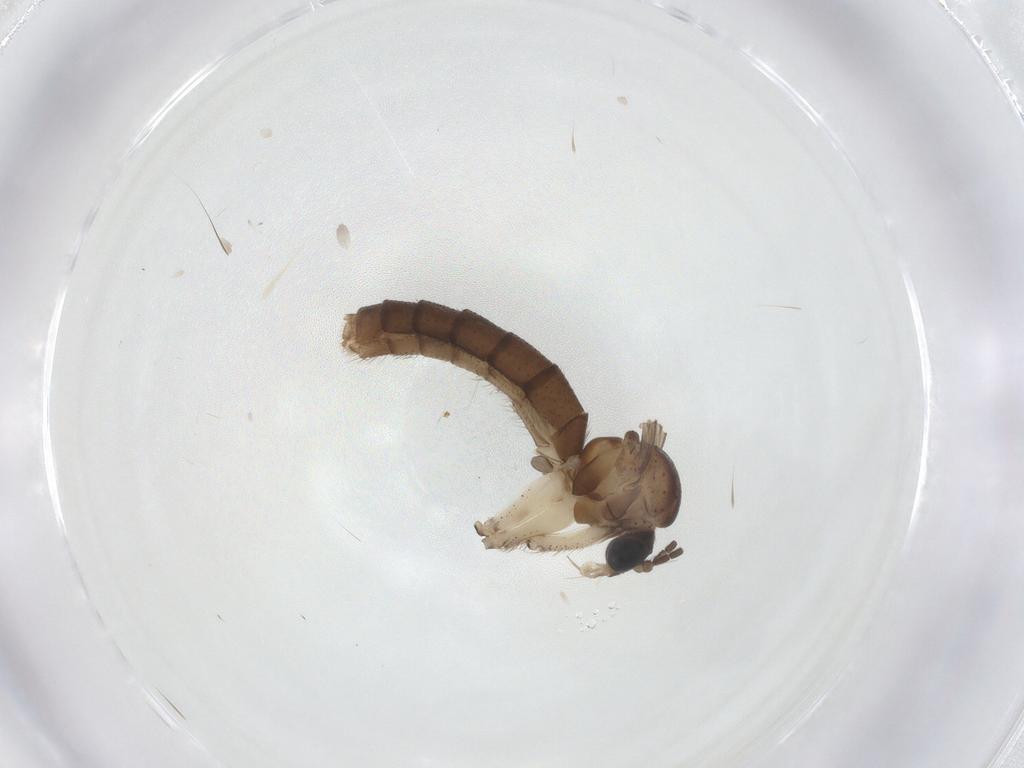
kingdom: Animalia
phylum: Arthropoda
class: Insecta
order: Diptera
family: Mycetophilidae
